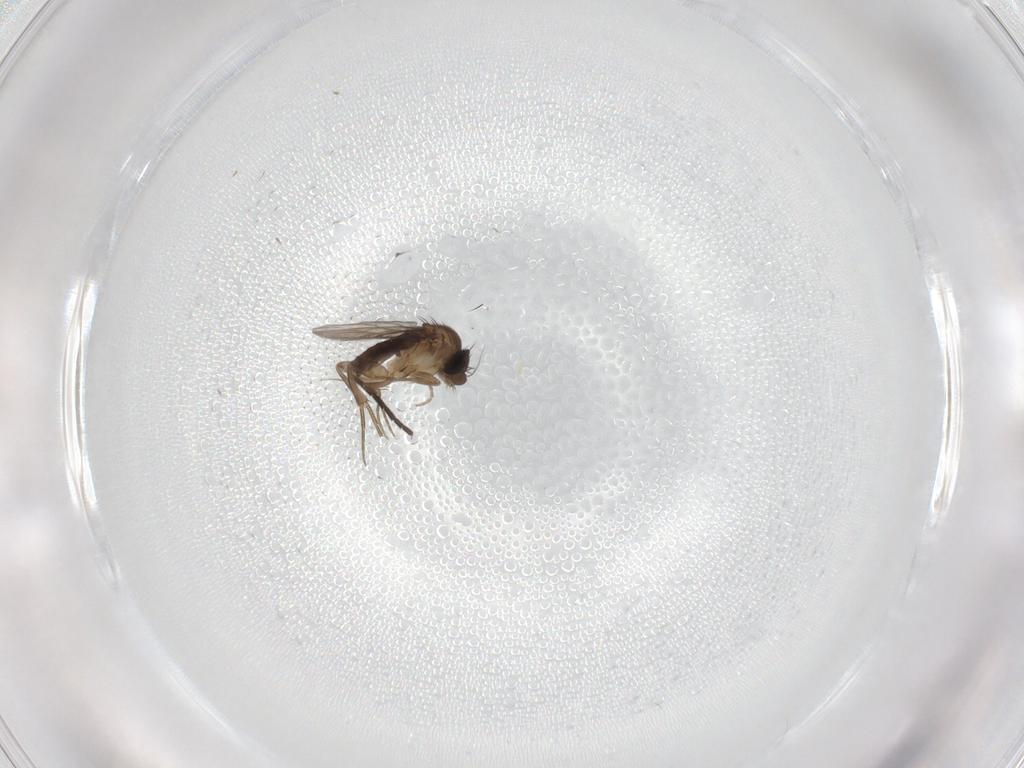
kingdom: Animalia
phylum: Arthropoda
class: Insecta
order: Diptera
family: Phoridae
